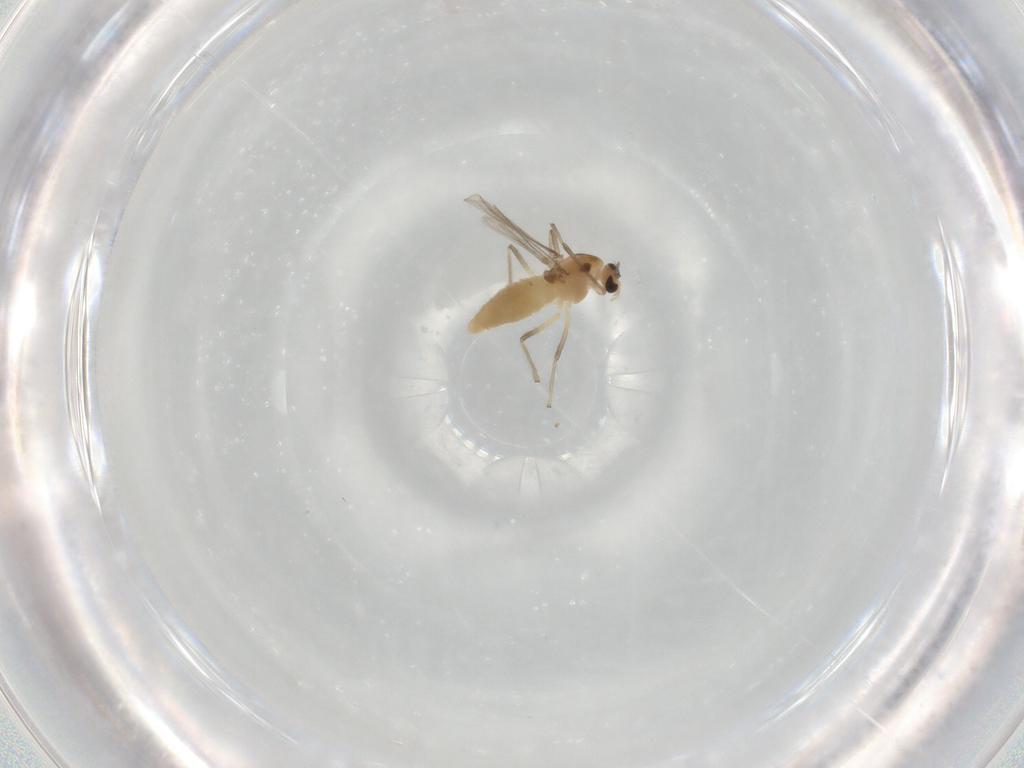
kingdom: Animalia
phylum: Arthropoda
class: Insecta
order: Diptera
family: Chironomidae
